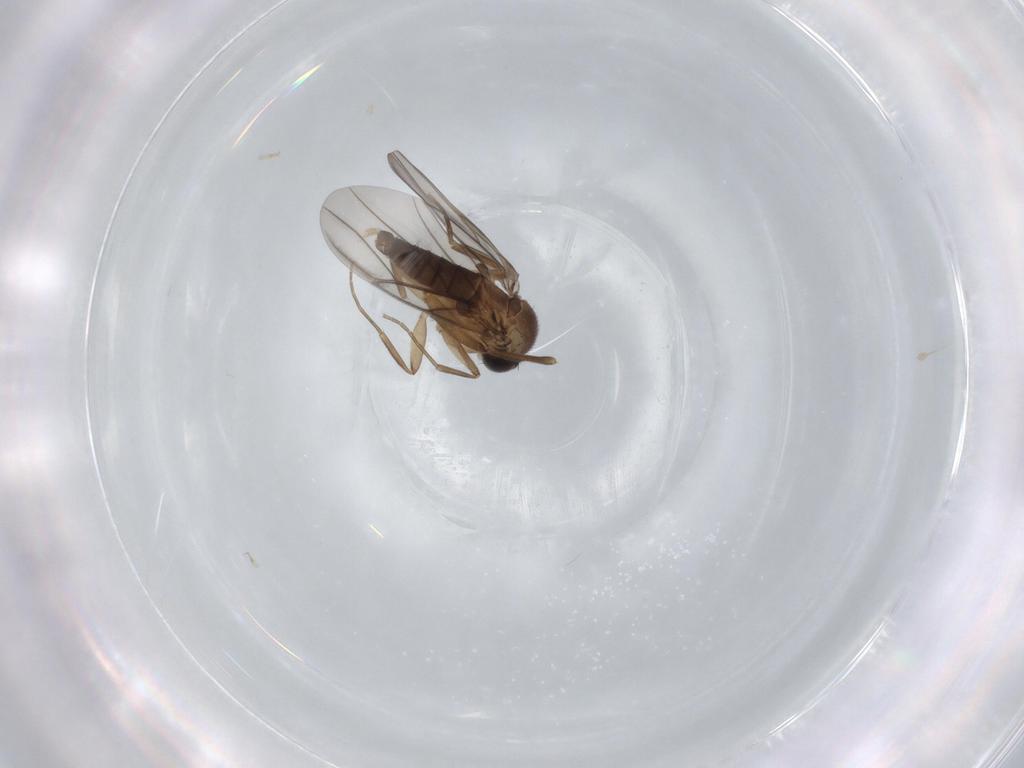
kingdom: Animalia
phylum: Arthropoda
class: Insecta
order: Diptera
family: Phoridae
